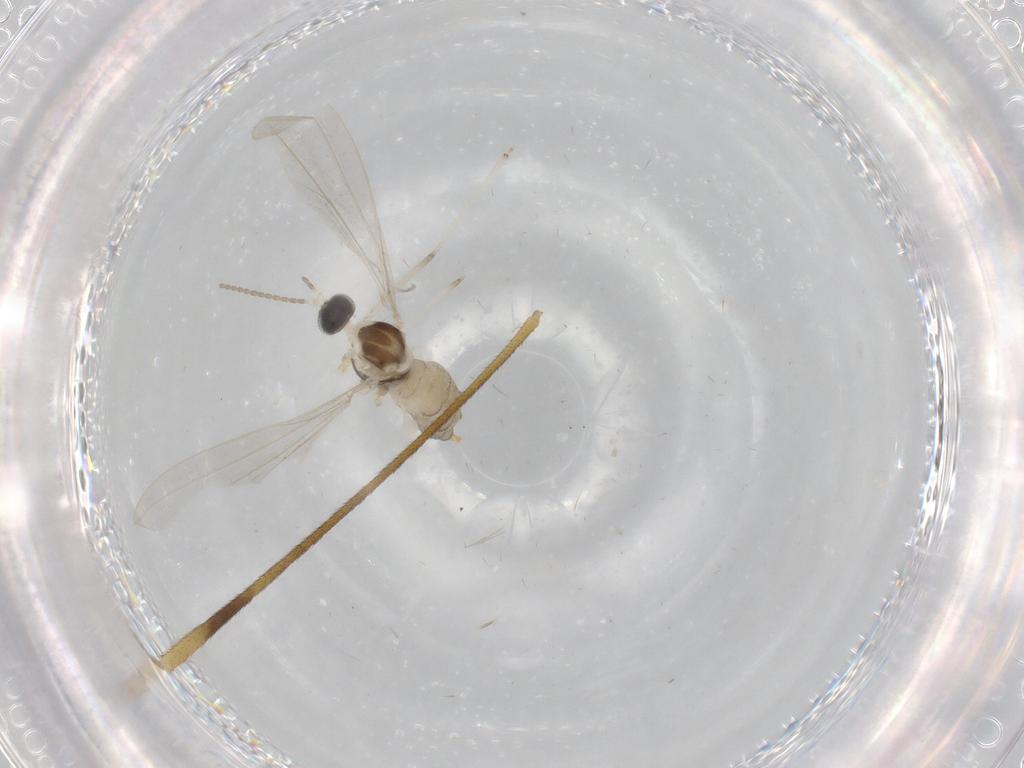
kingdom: Animalia
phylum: Arthropoda
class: Insecta
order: Diptera
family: Cecidomyiidae
